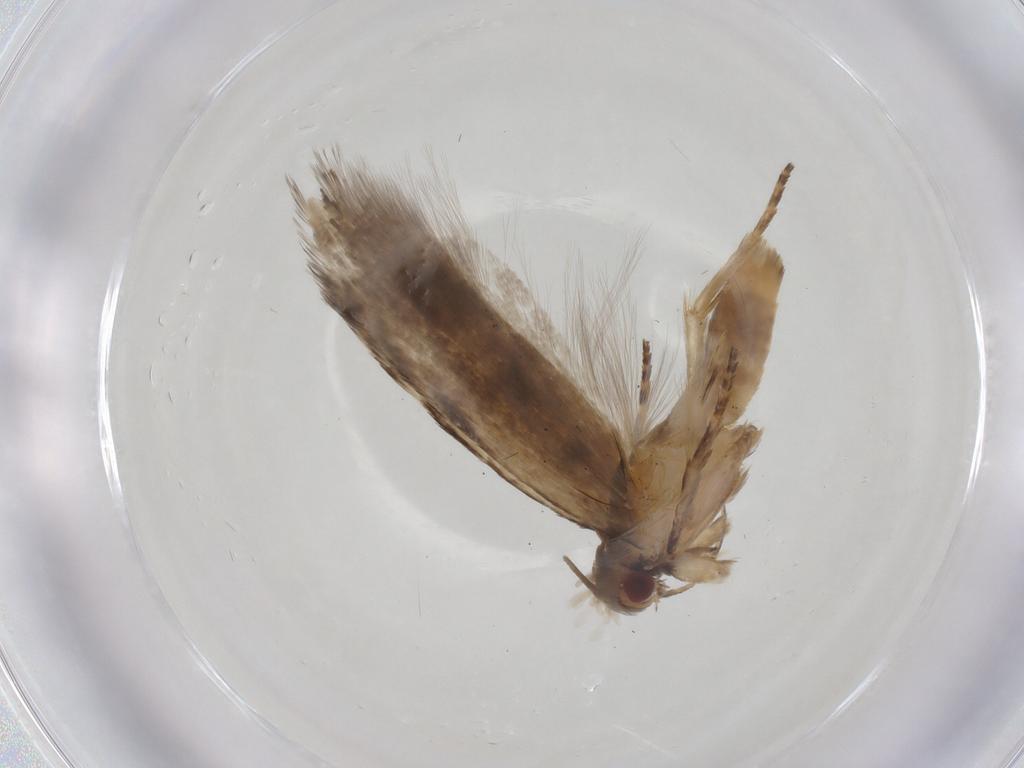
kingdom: Animalia
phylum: Arthropoda
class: Insecta
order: Lepidoptera
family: Gelechiidae
